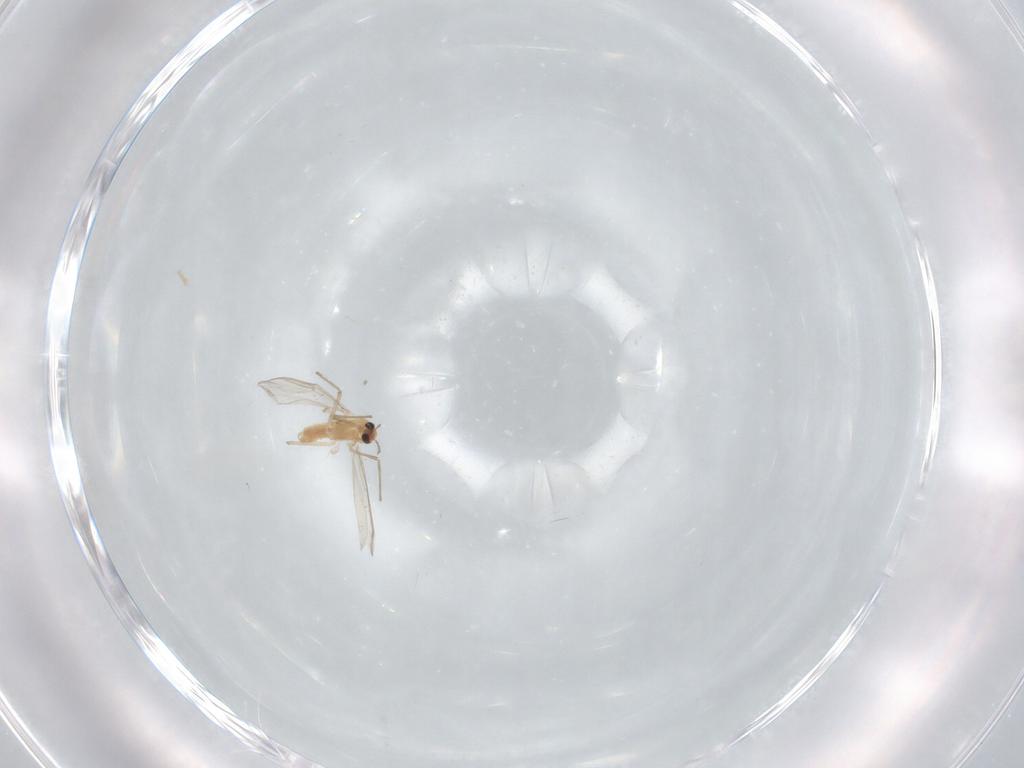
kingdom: Animalia
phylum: Arthropoda
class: Insecta
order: Diptera
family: Chironomidae
